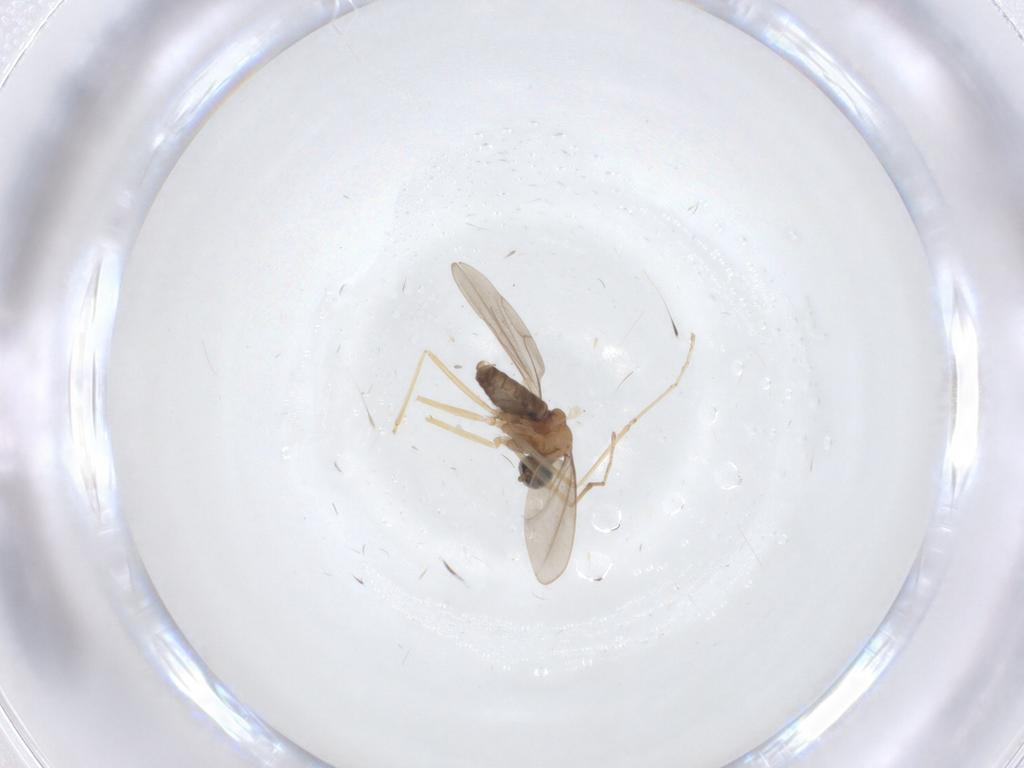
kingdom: Animalia
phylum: Arthropoda
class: Insecta
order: Diptera
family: Cecidomyiidae
